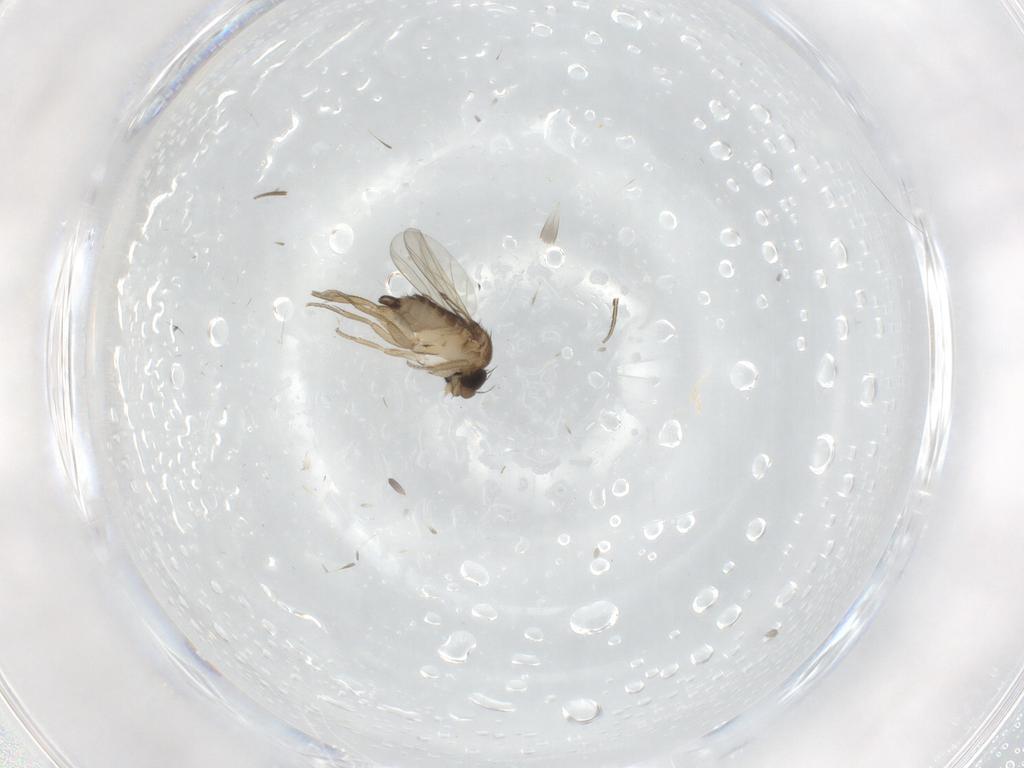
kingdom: Animalia
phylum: Arthropoda
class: Insecta
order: Diptera
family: Cecidomyiidae
